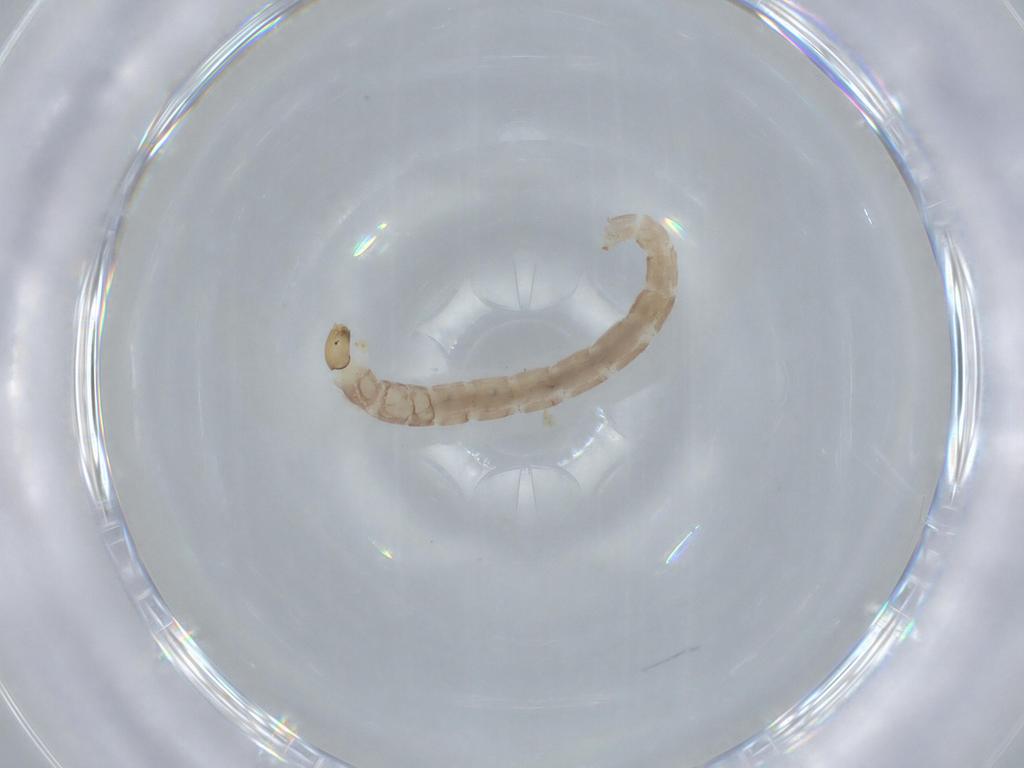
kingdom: Animalia
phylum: Arthropoda
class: Insecta
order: Diptera
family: Chironomidae
